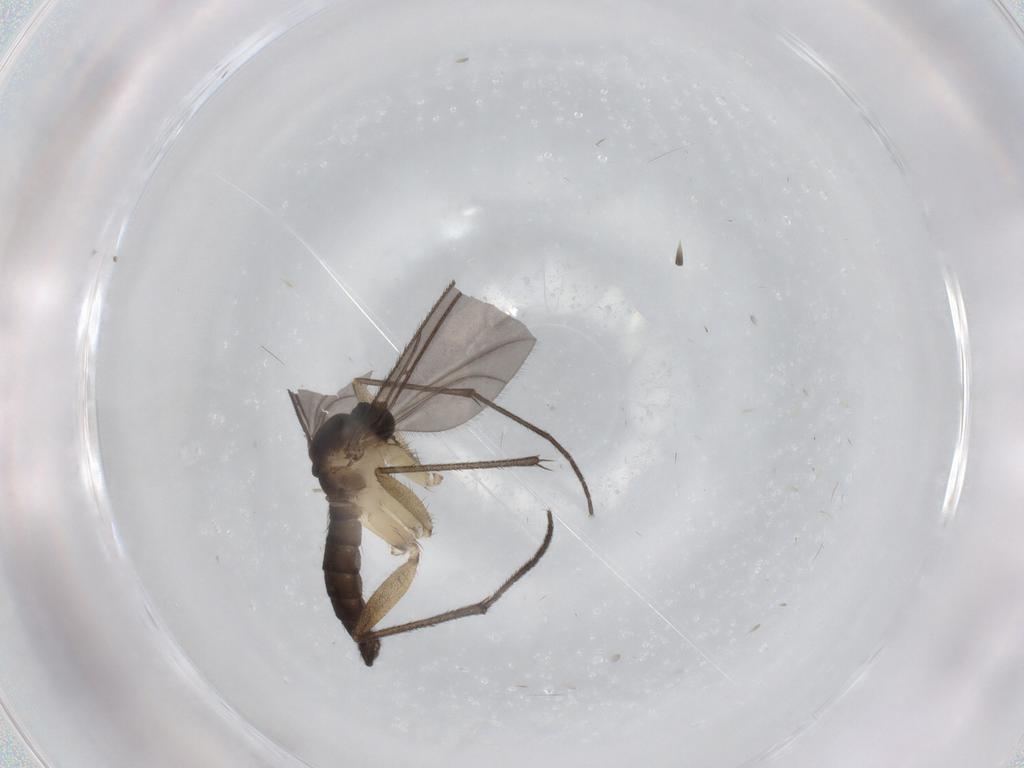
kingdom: Animalia
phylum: Arthropoda
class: Insecta
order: Diptera
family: Sciaridae
